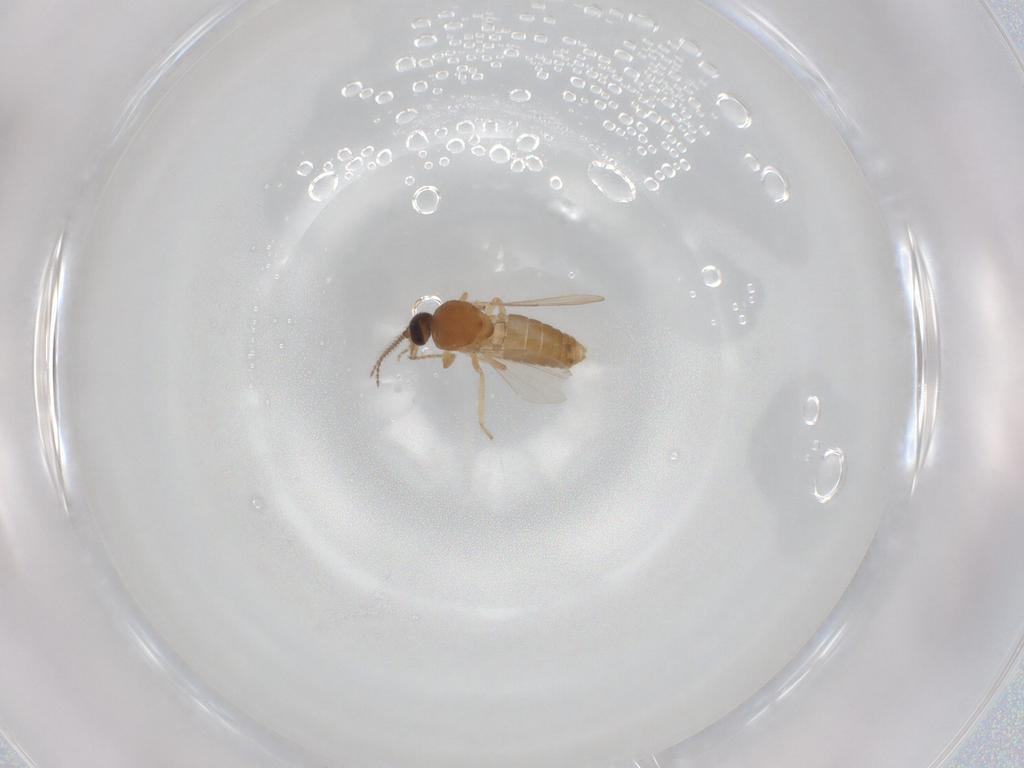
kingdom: Animalia
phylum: Arthropoda
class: Insecta
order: Diptera
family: Ceratopogonidae
